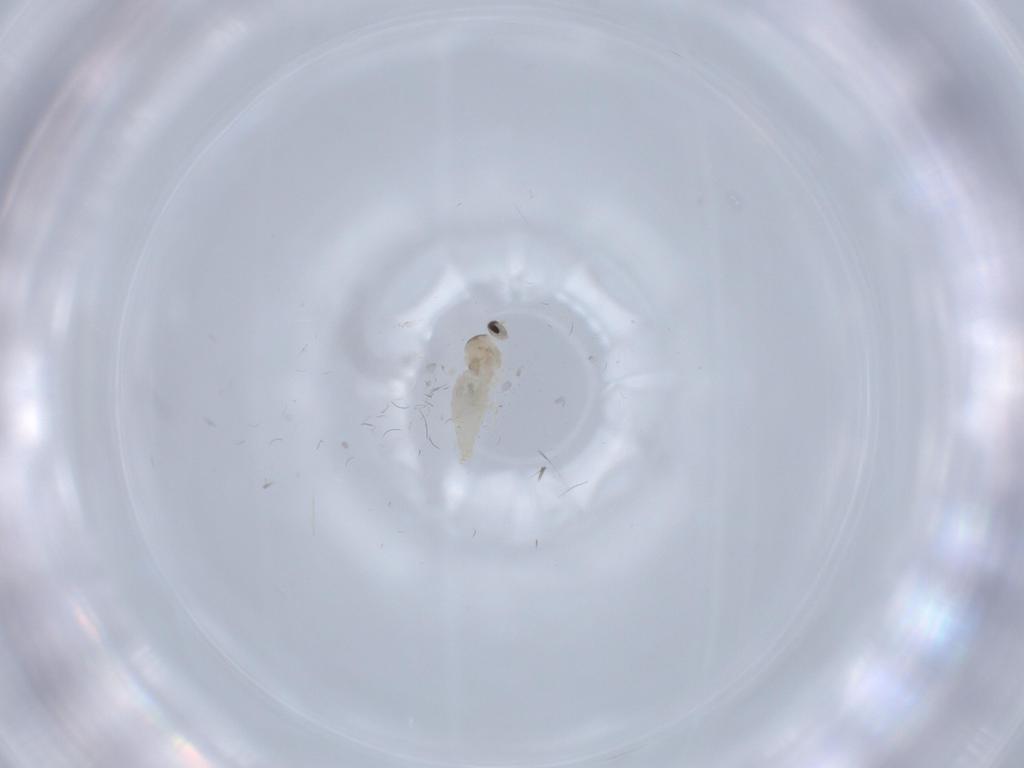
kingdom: Animalia
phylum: Arthropoda
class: Insecta
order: Diptera
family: Cecidomyiidae
